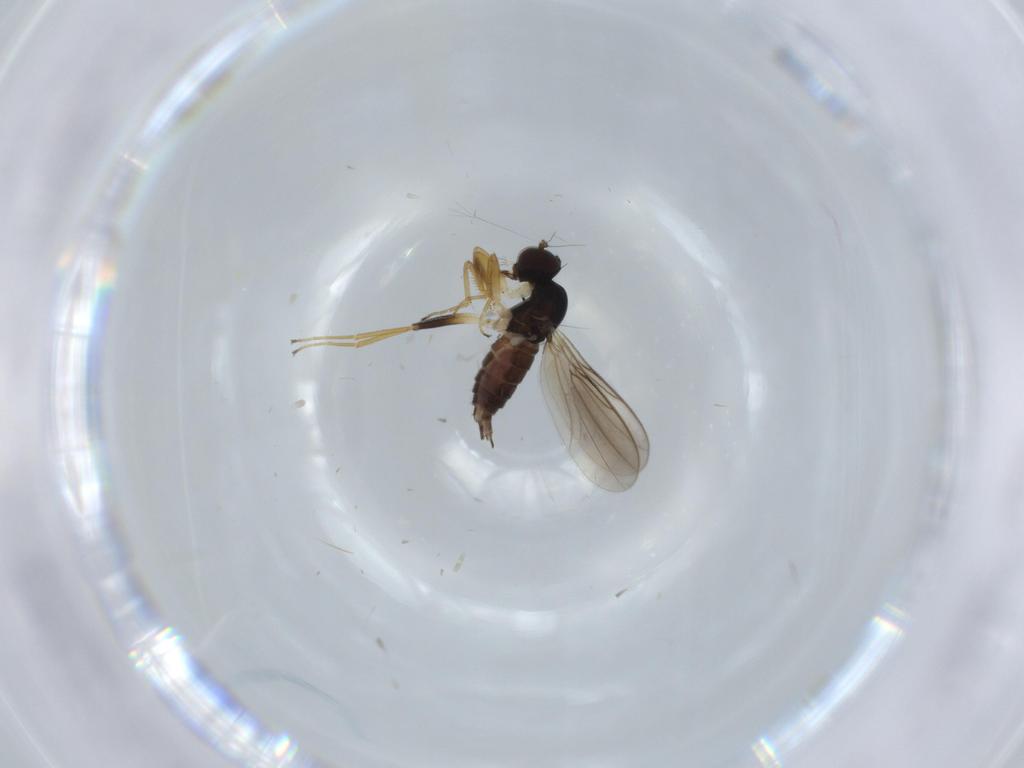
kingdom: Animalia
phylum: Arthropoda
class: Insecta
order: Diptera
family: Hybotidae
